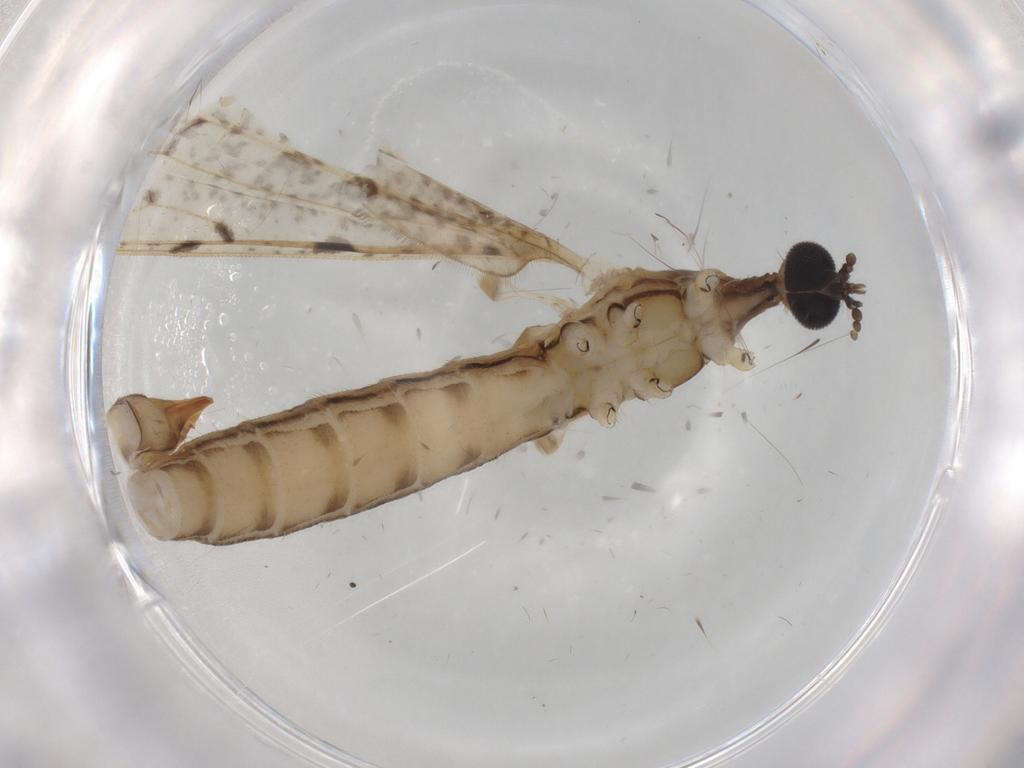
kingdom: Animalia
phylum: Arthropoda
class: Insecta
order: Diptera
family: Limoniidae
